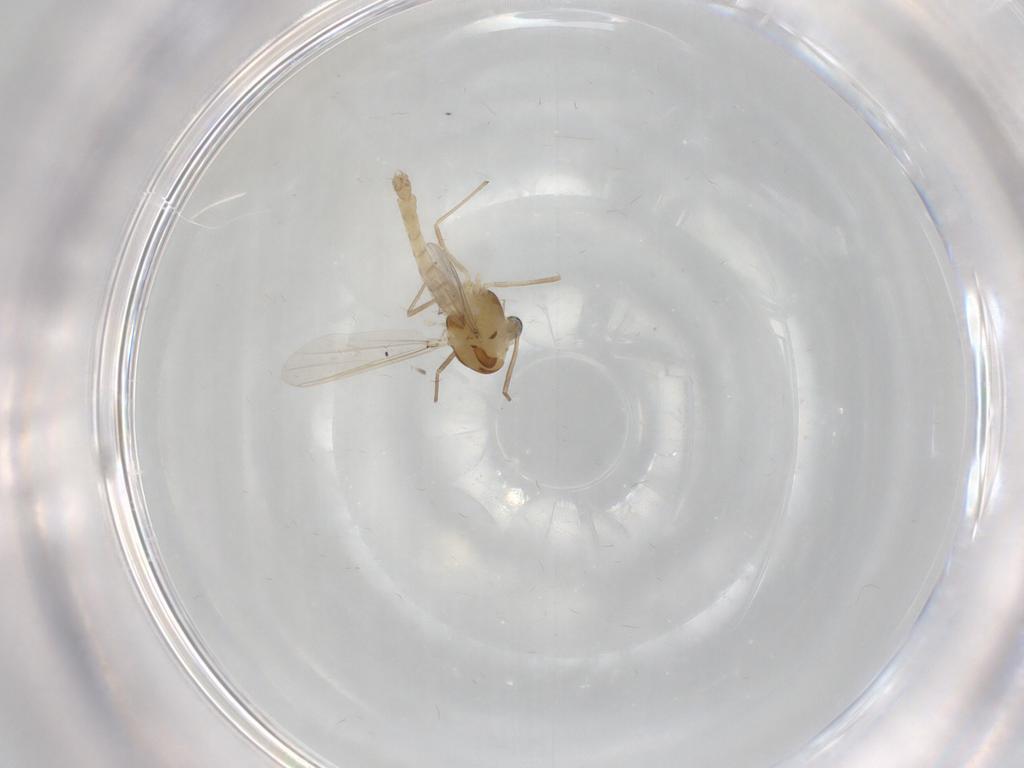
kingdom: Animalia
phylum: Arthropoda
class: Insecta
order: Diptera
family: Chironomidae
